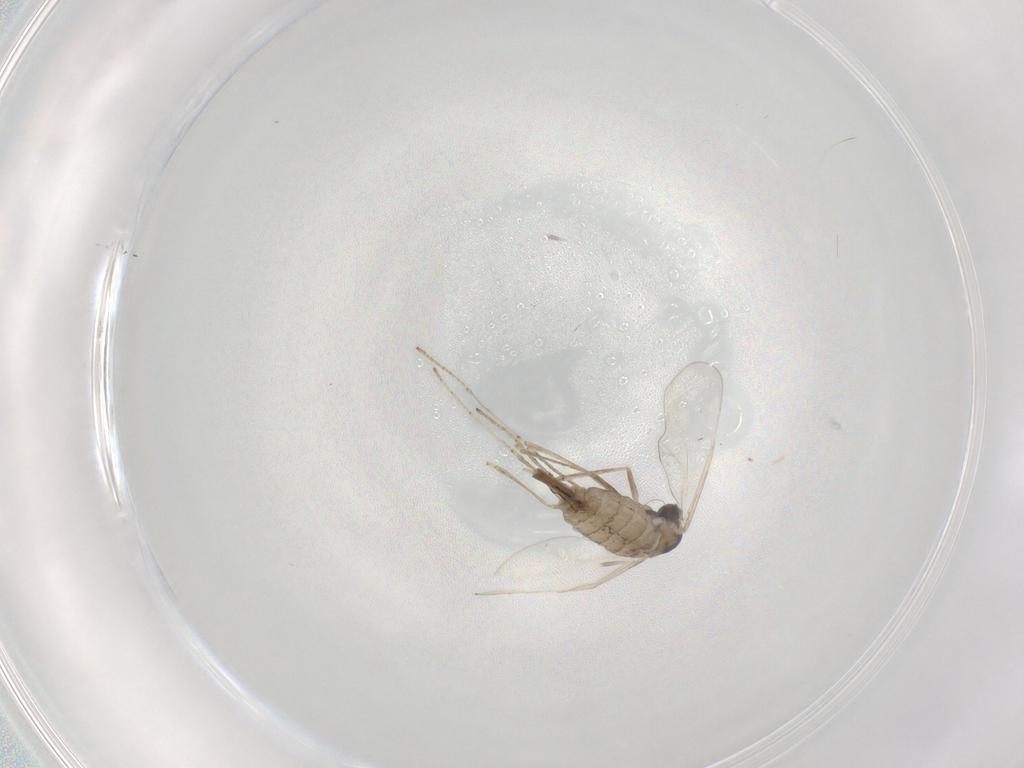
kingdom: Animalia
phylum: Arthropoda
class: Insecta
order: Diptera
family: Cecidomyiidae
